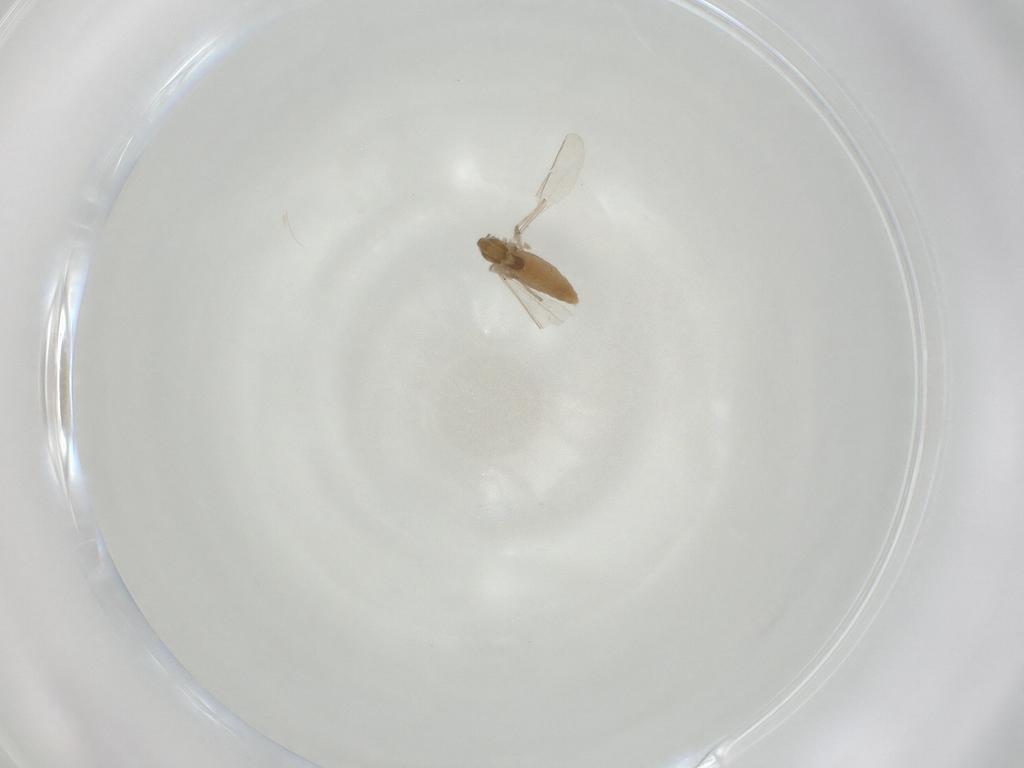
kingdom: Animalia
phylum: Arthropoda
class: Insecta
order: Diptera
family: Chironomidae
